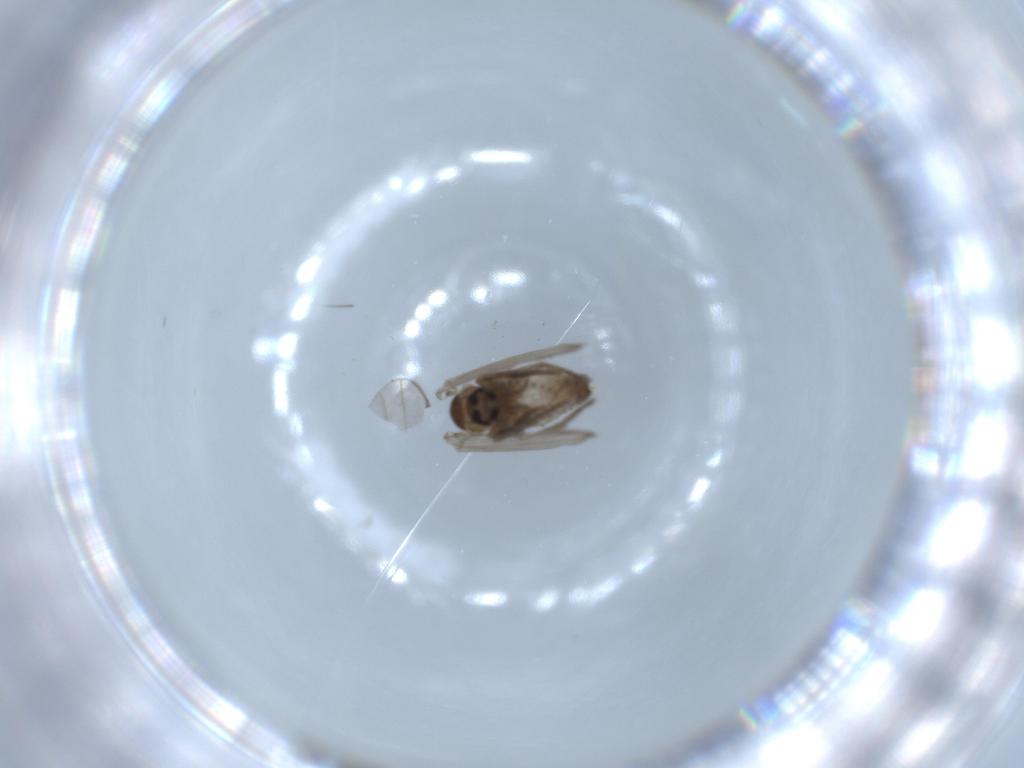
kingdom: Animalia
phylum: Arthropoda
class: Insecta
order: Diptera
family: Psychodidae
